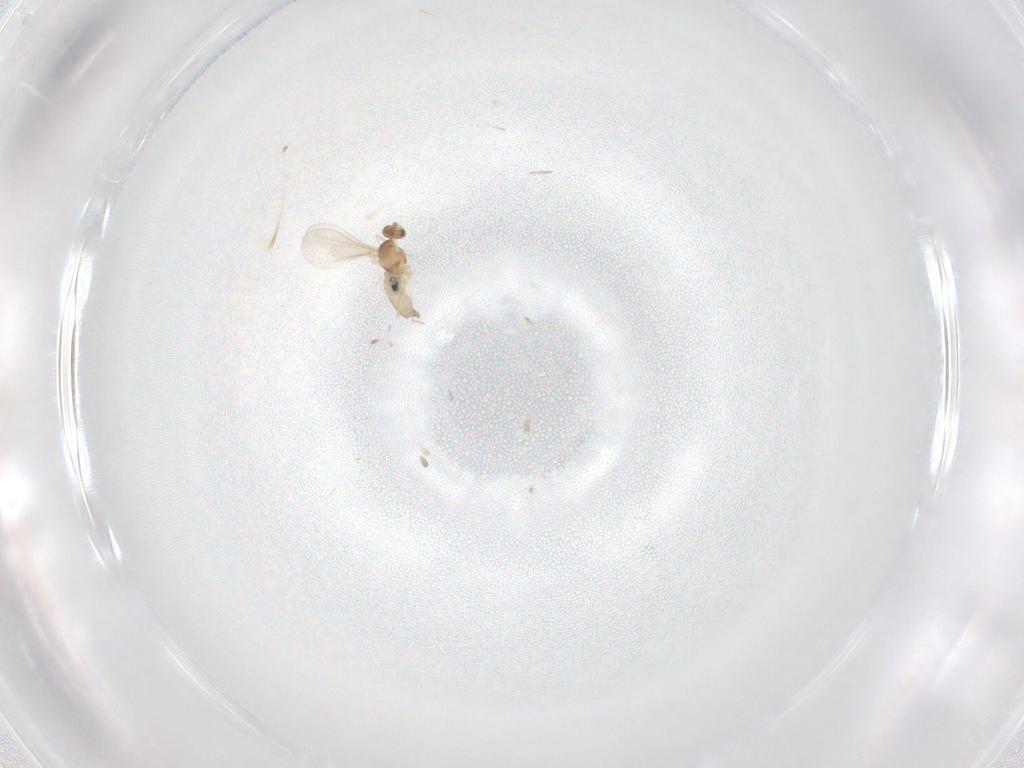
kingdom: Animalia
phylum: Arthropoda
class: Insecta
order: Diptera
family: Cecidomyiidae
